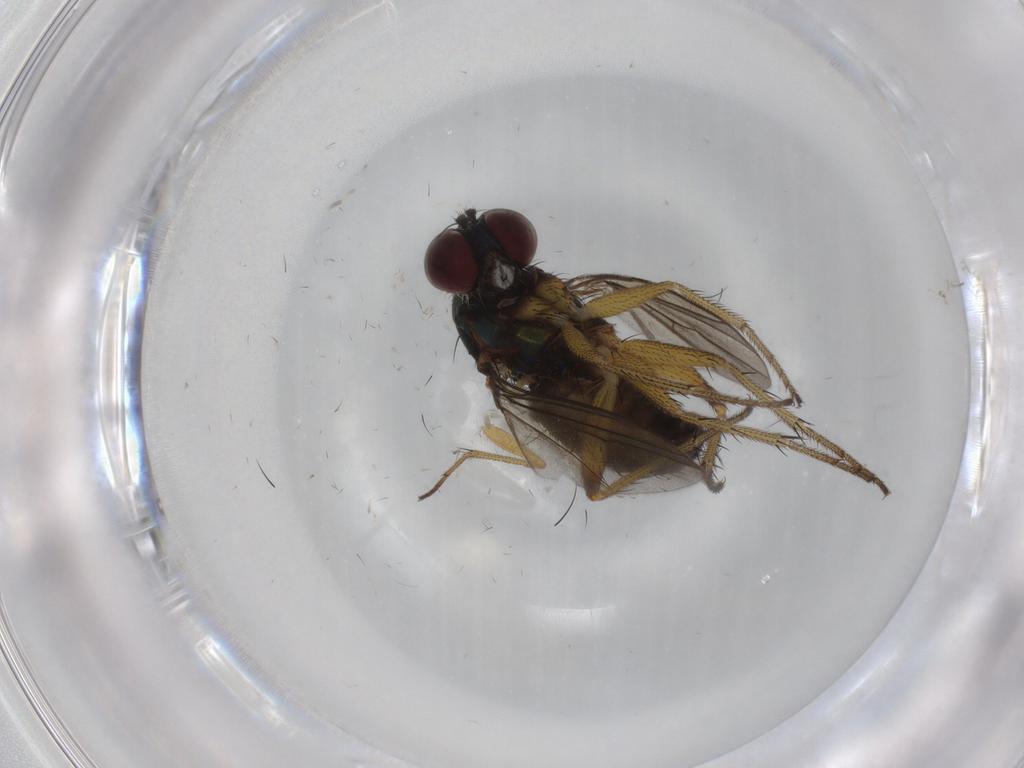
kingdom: Animalia
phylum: Arthropoda
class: Insecta
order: Diptera
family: Dolichopodidae
